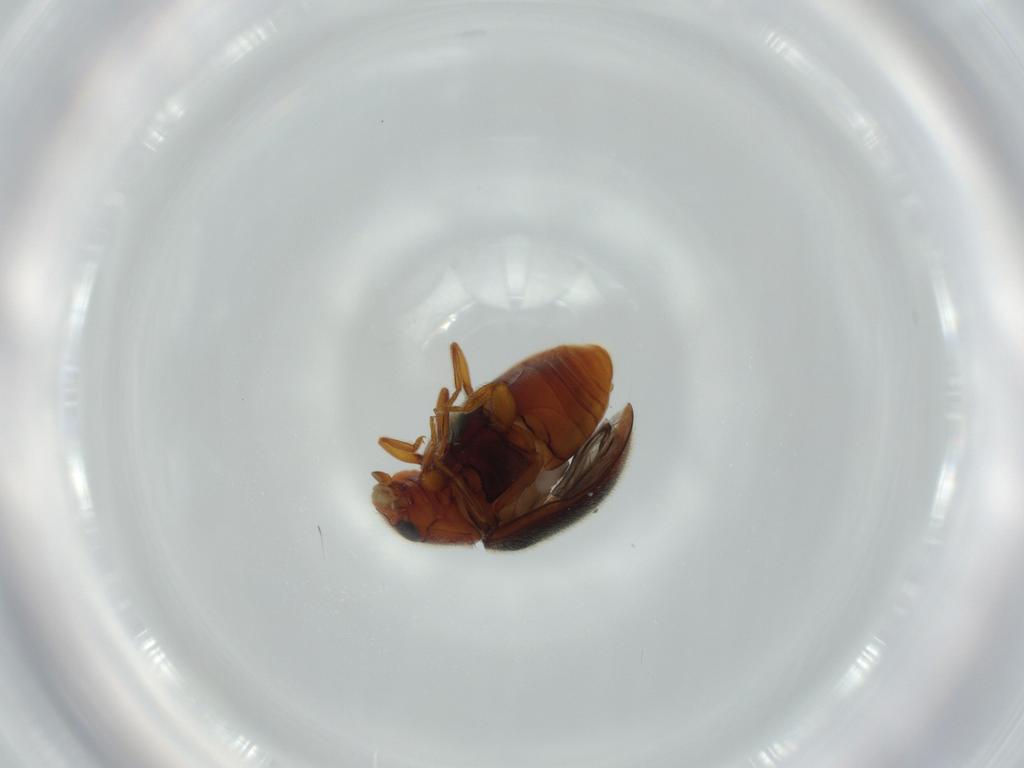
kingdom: Animalia
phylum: Arthropoda
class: Insecta
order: Coleoptera
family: Coccinellidae
